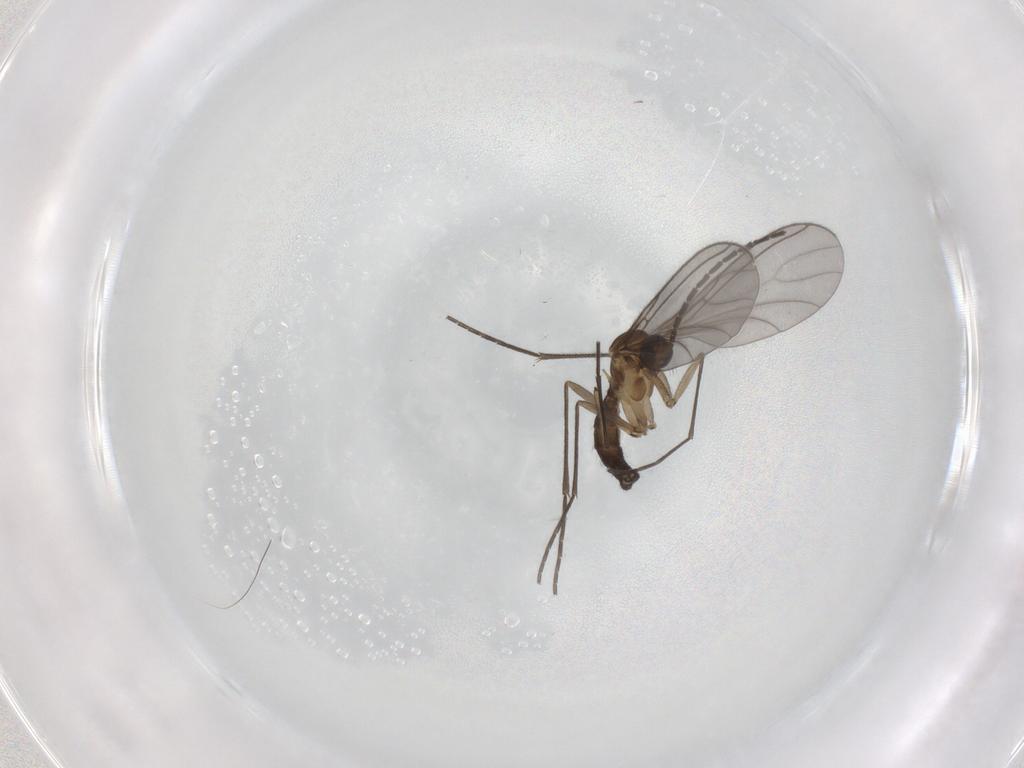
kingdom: Animalia
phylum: Arthropoda
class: Insecta
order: Diptera
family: Sciaridae
